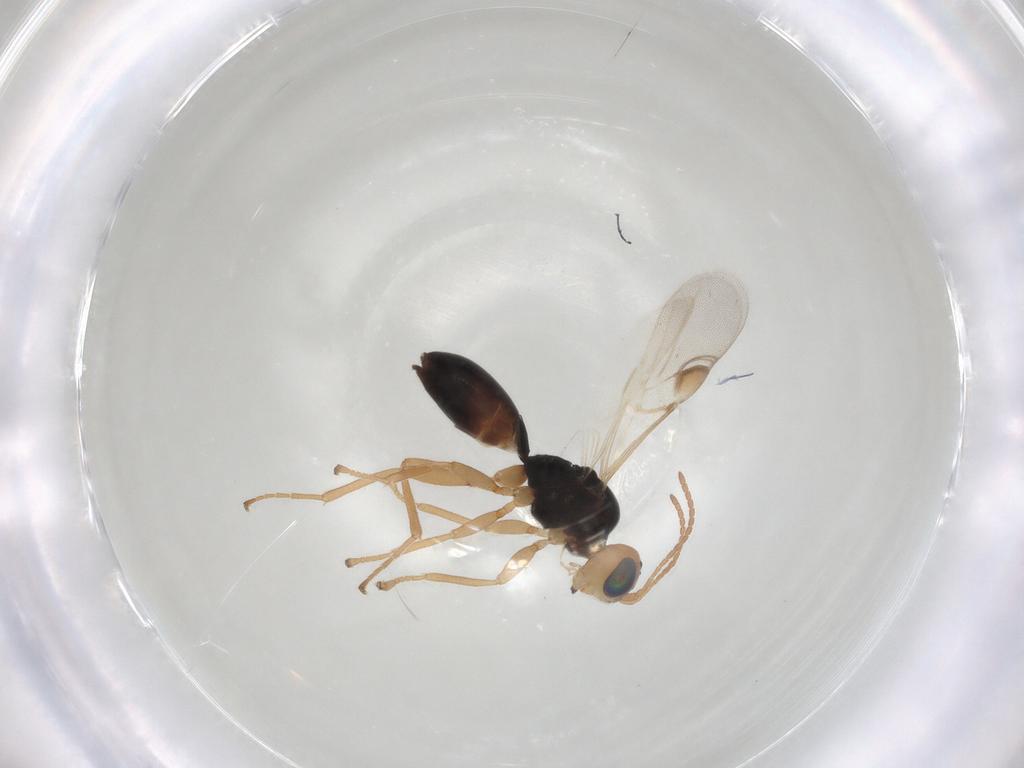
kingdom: Animalia
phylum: Arthropoda
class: Insecta
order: Hymenoptera
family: Braconidae
